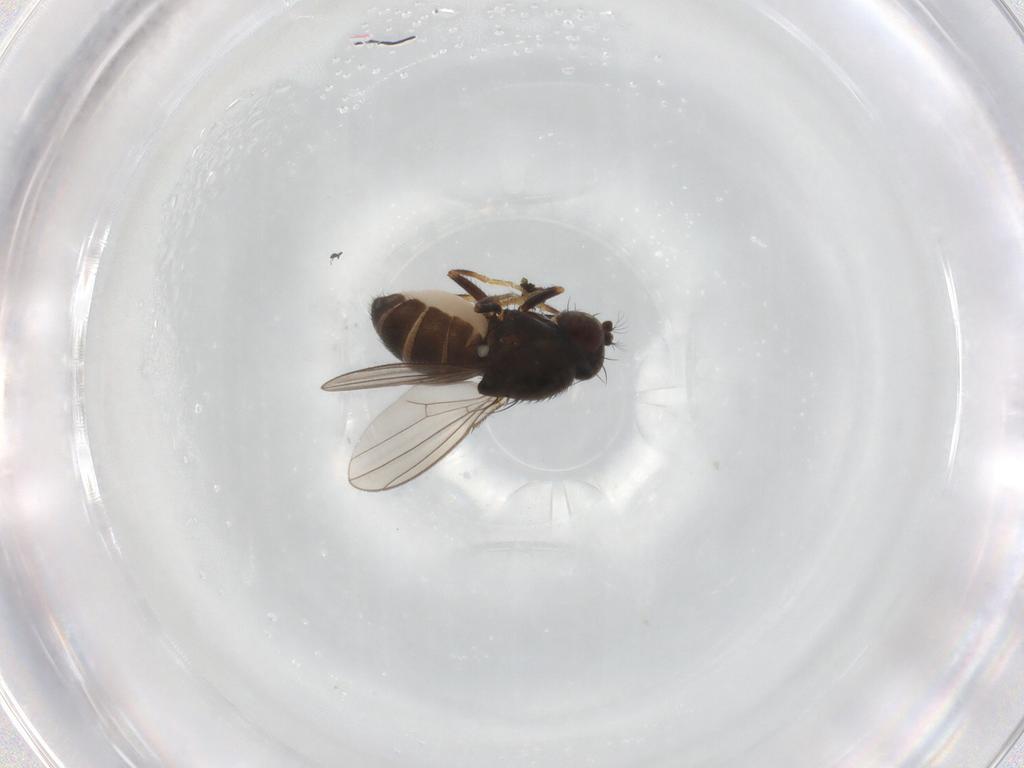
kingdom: Animalia
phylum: Arthropoda
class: Insecta
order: Diptera
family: Ephydridae
